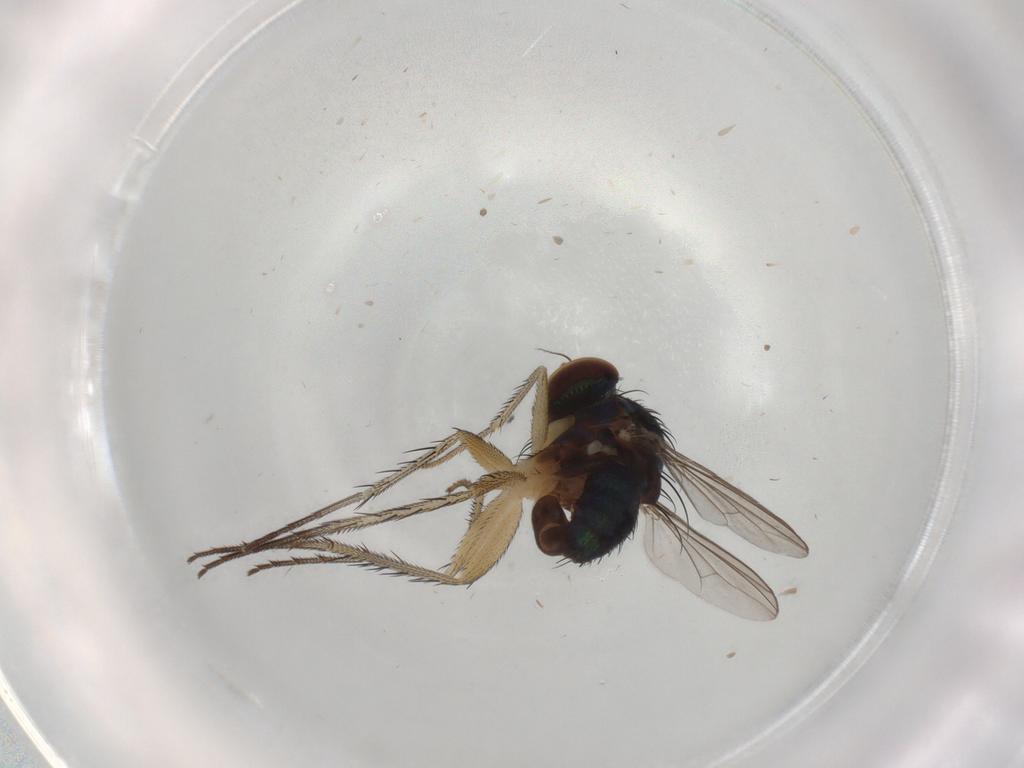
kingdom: Animalia
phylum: Arthropoda
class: Insecta
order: Diptera
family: Dolichopodidae
